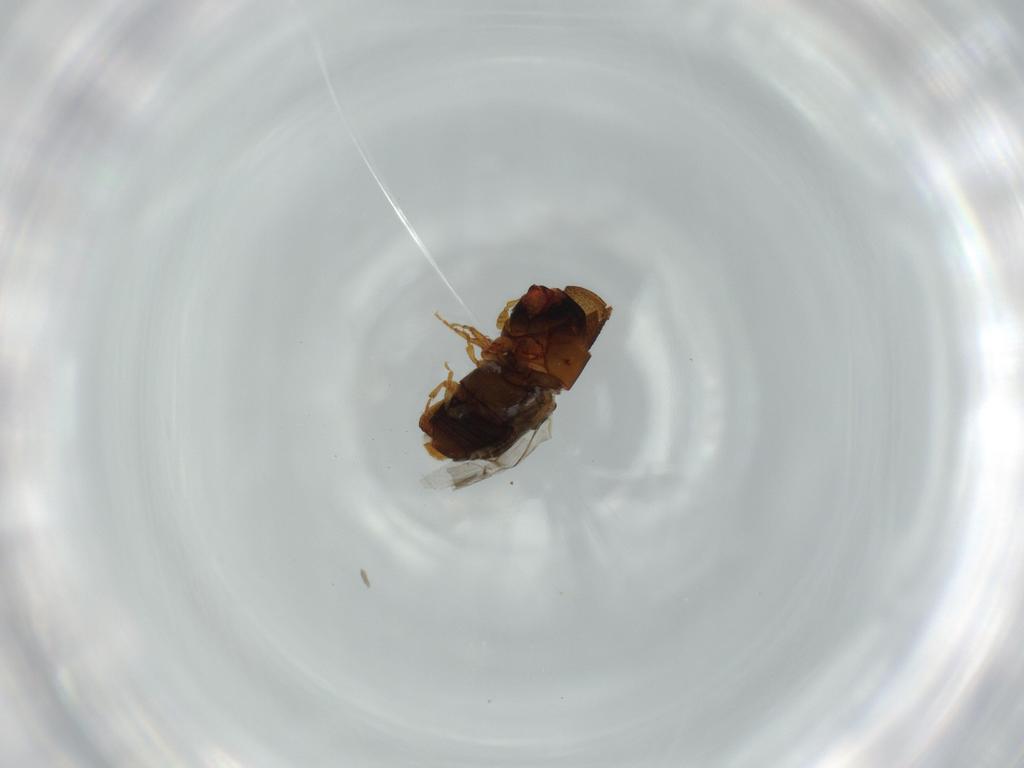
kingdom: Animalia
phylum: Arthropoda
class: Insecta
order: Coleoptera
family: Curculionidae
